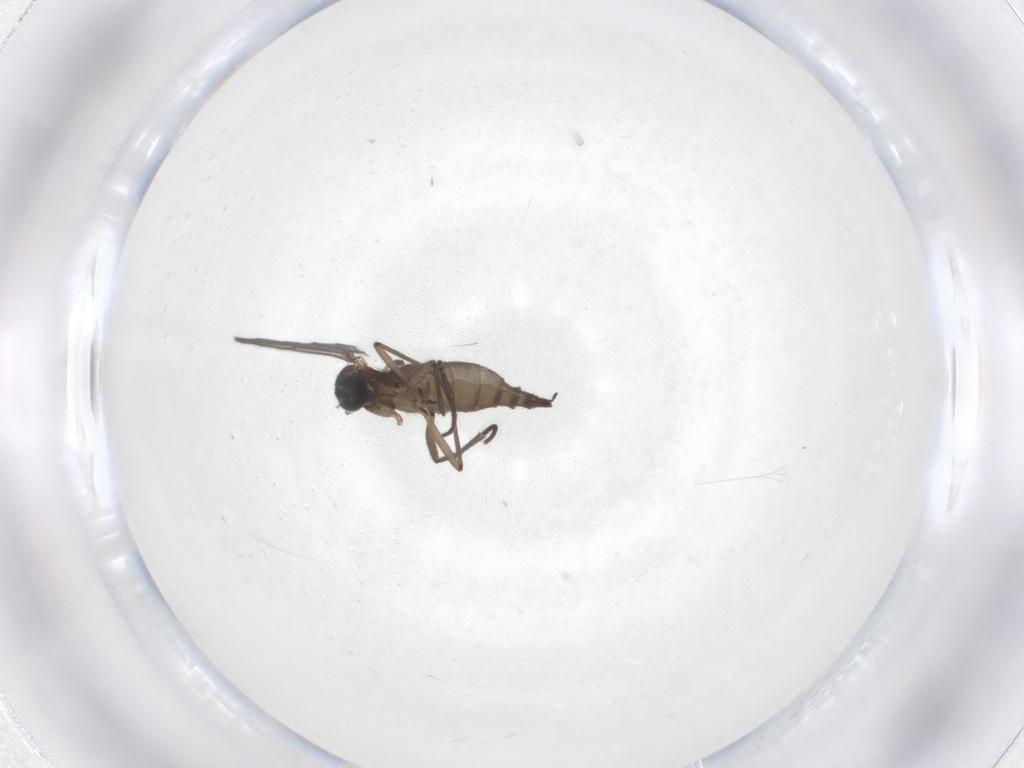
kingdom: Animalia
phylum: Arthropoda
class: Insecta
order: Diptera
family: Sciaridae
